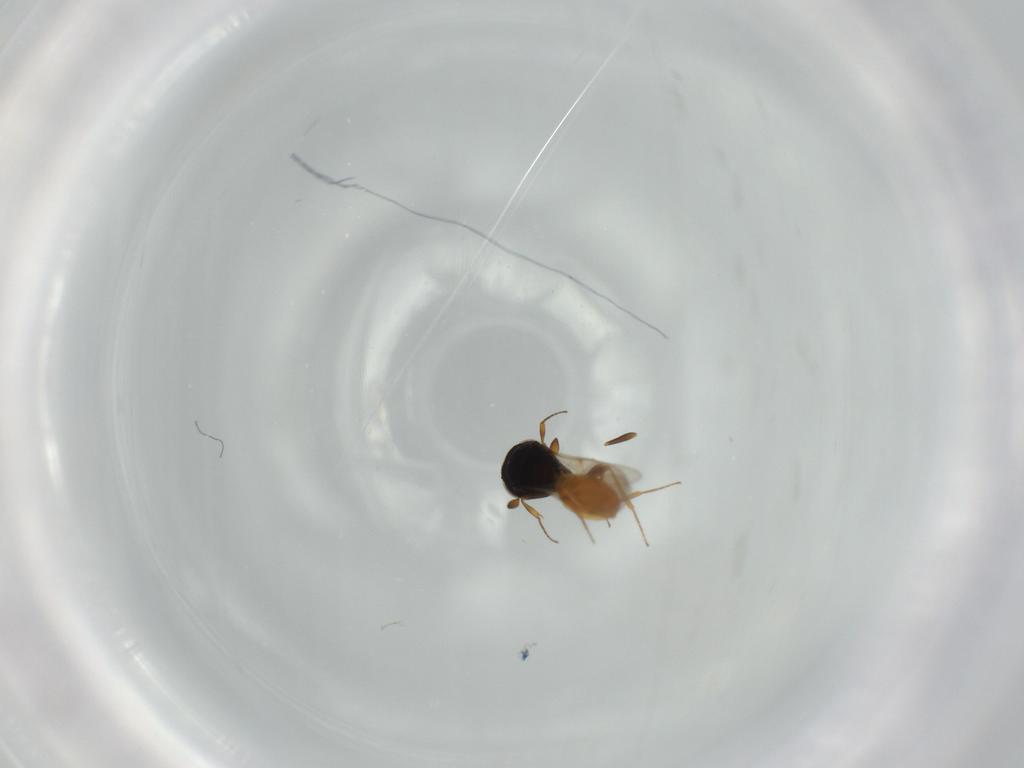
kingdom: Animalia
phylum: Arthropoda
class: Insecta
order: Hymenoptera
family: Scelionidae
